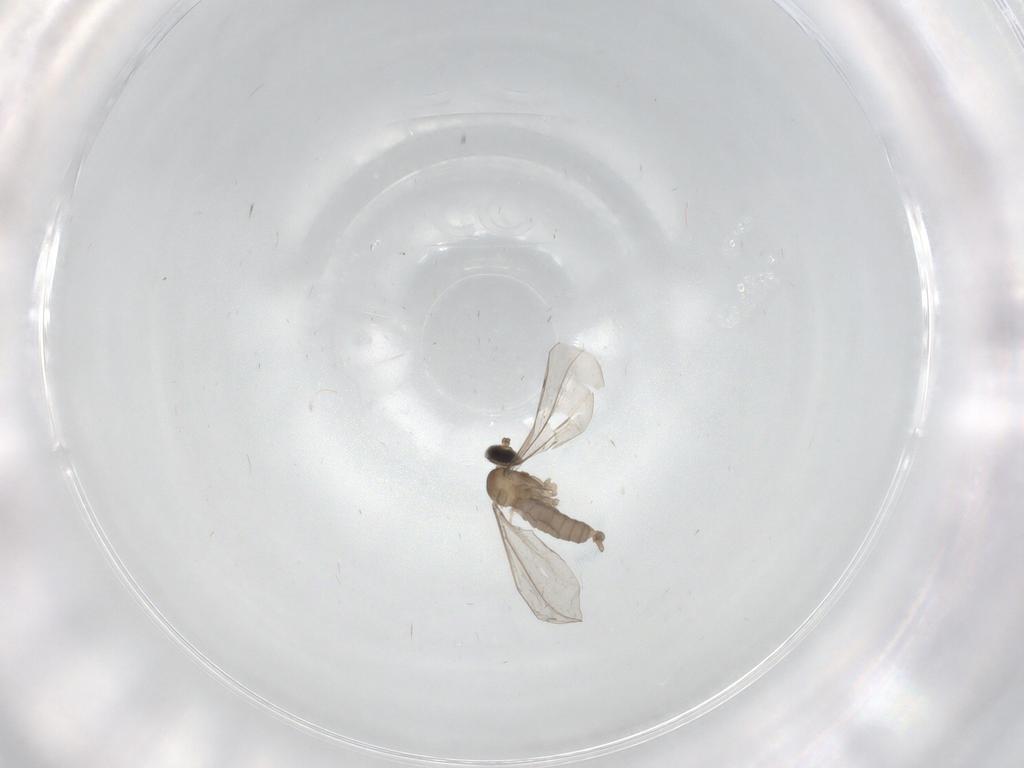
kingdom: Animalia
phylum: Arthropoda
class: Insecta
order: Diptera
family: Cecidomyiidae
